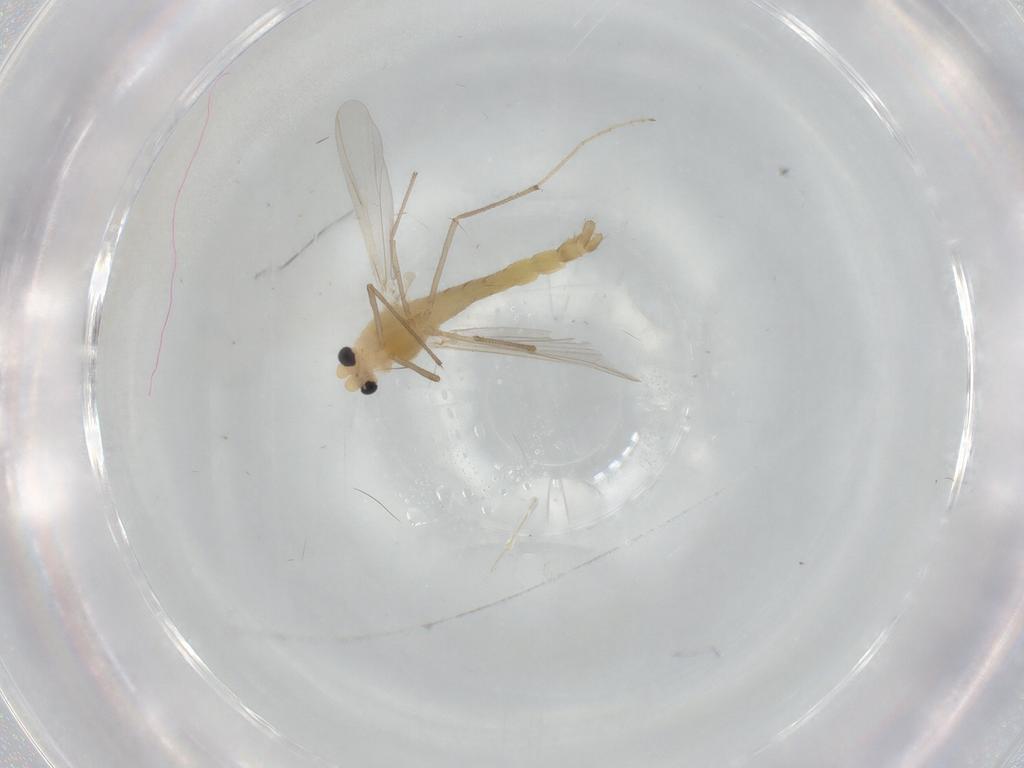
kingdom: Animalia
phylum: Arthropoda
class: Insecta
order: Diptera
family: Chironomidae
